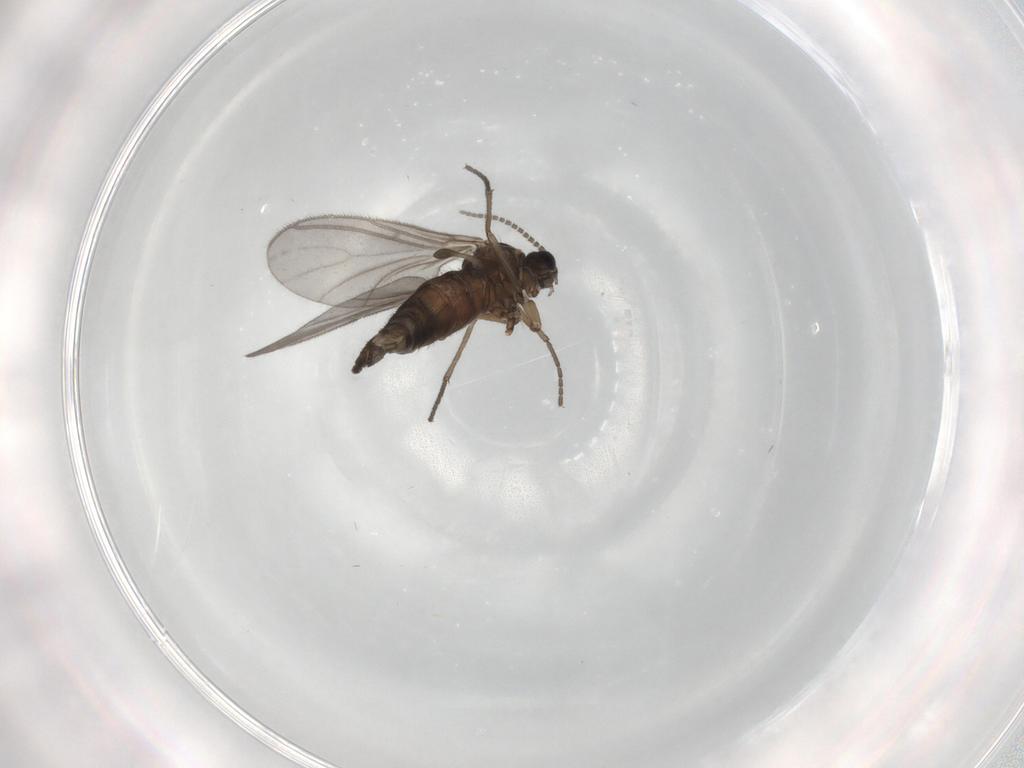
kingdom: Animalia
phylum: Arthropoda
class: Insecta
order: Diptera
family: Sciaridae
